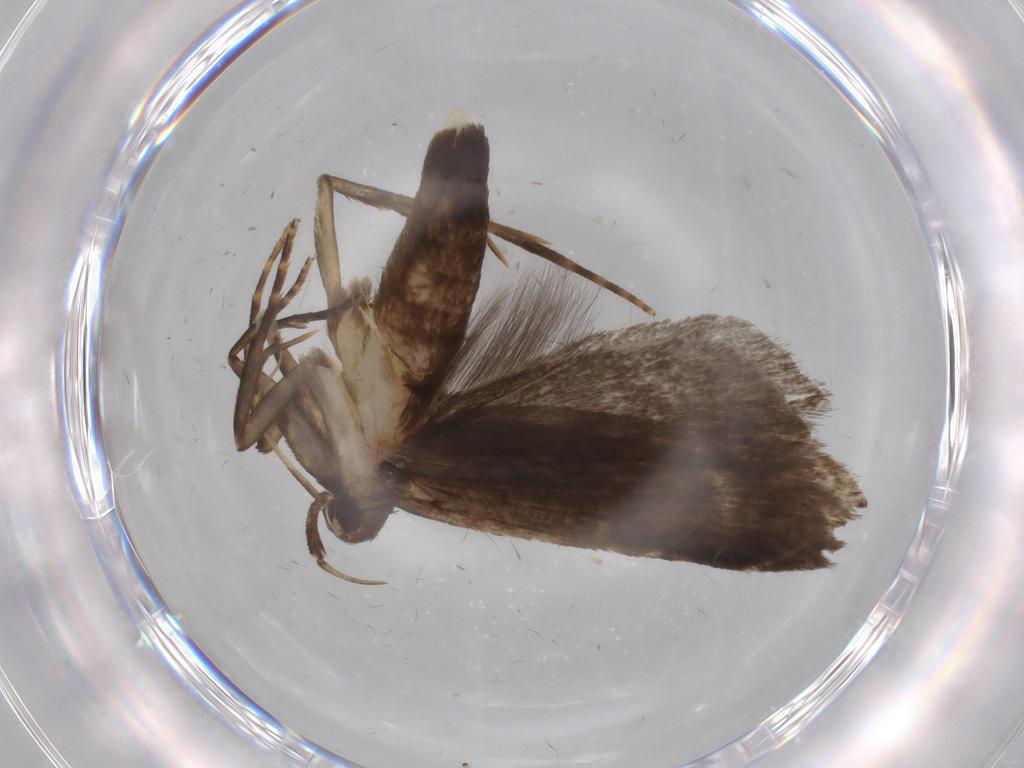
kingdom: Animalia
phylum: Arthropoda
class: Insecta
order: Lepidoptera
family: Gelechiidae
